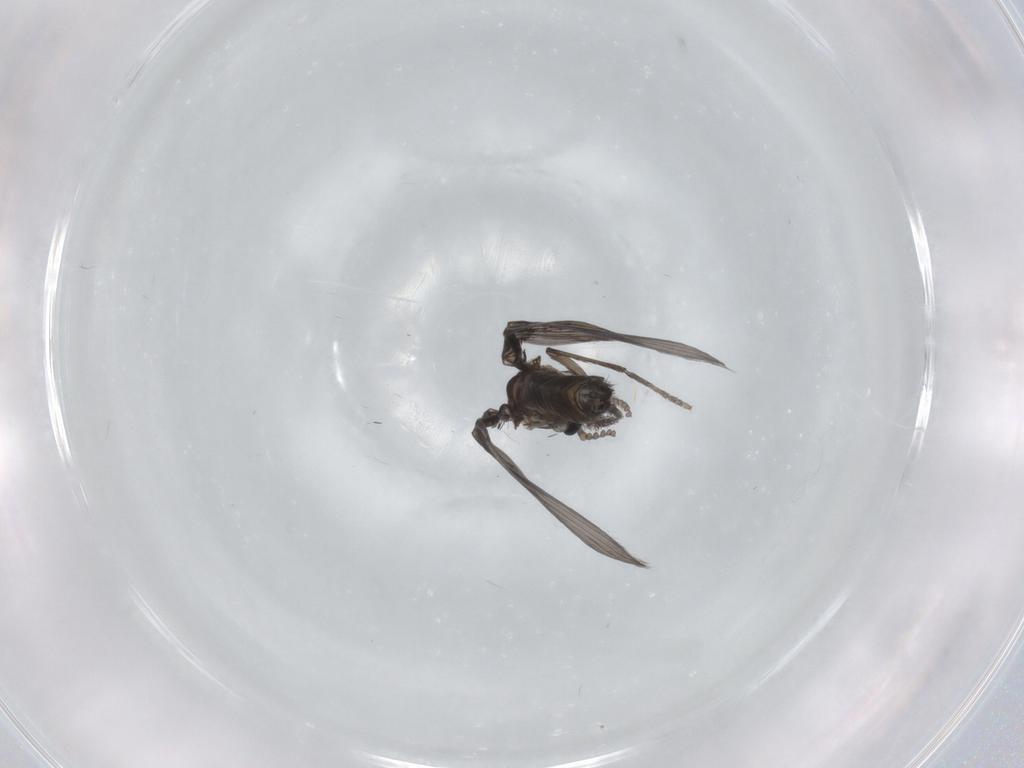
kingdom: Animalia
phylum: Arthropoda
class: Insecta
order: Diptera
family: Psychodidae
